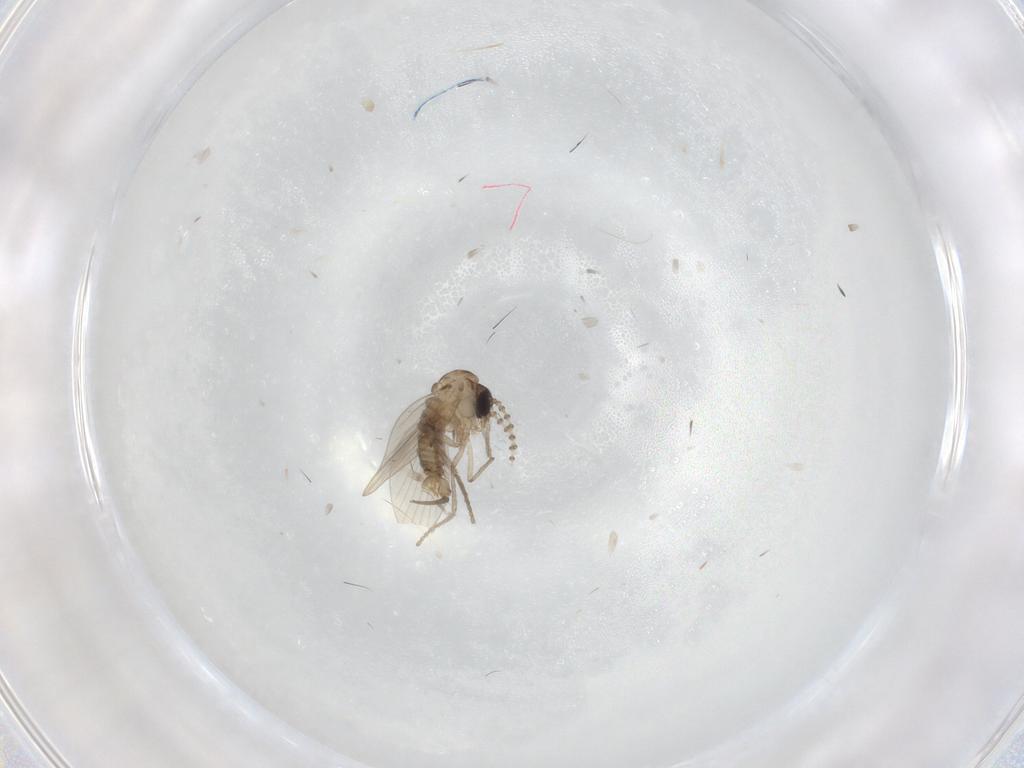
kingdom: Animalia
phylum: Arthropoda
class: Insecta
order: Diptera
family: Drosophilidae
